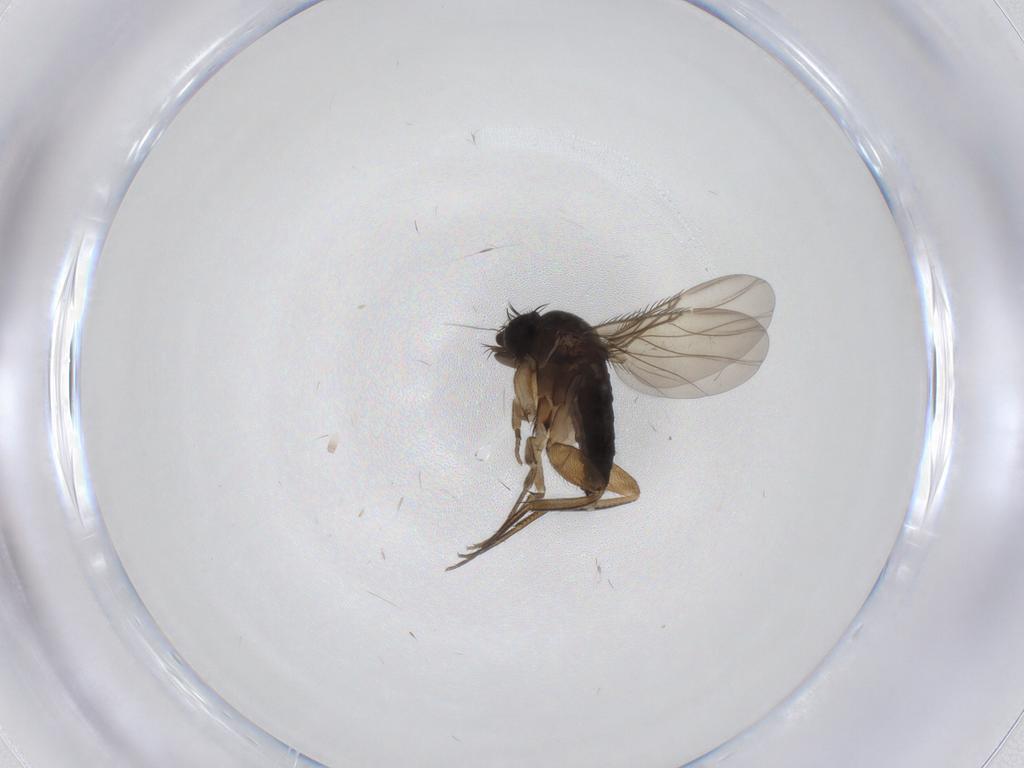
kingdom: Animalia
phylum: Arthropoda
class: Insecta
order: Diptera
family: Phoridae
